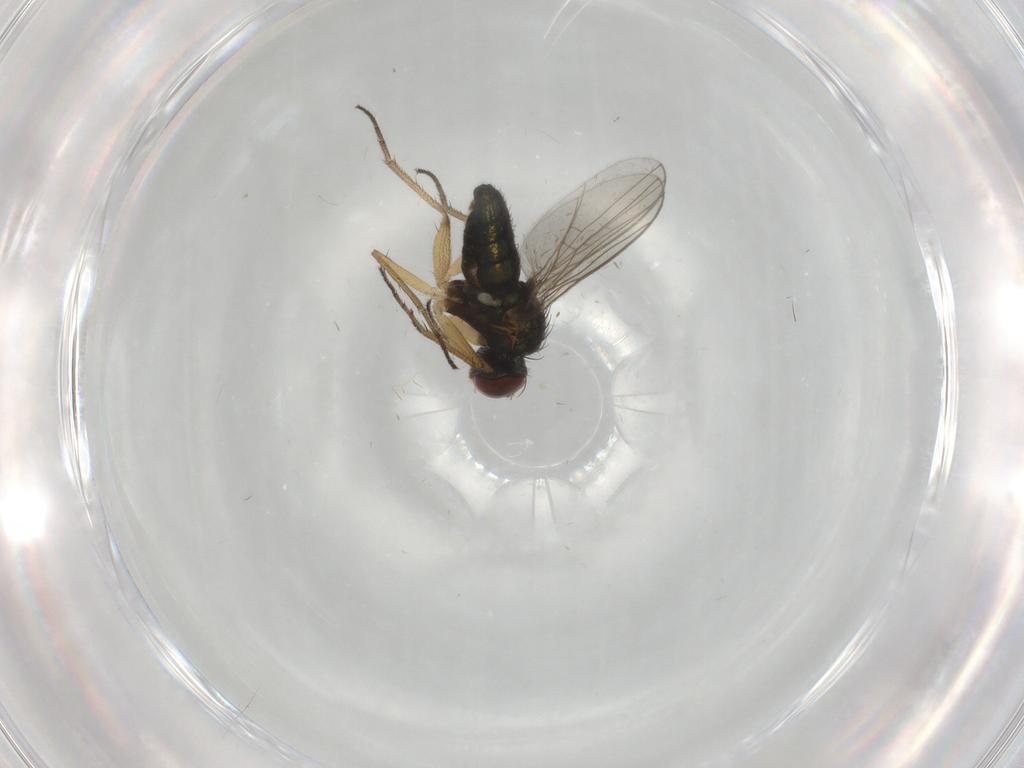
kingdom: Animalia
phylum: Arthropoda
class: Insecta
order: Diptera
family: Dolichopodidae
